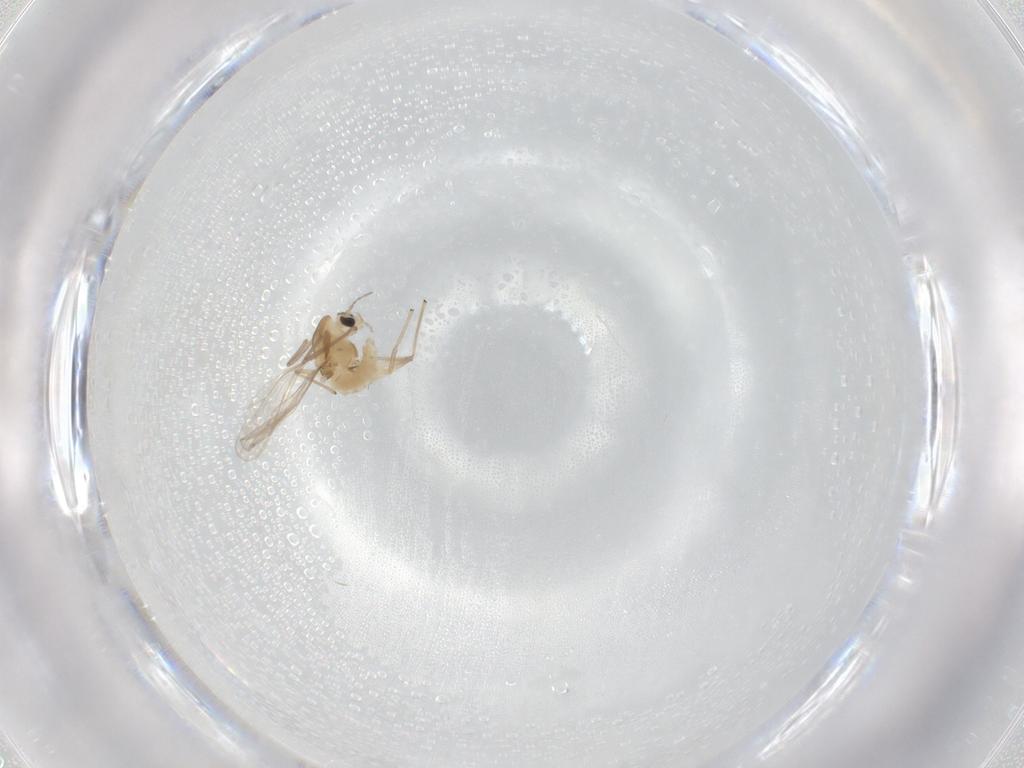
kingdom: Animalia
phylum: Arthropoda
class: Insecta
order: Diptera
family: Chironomidae
